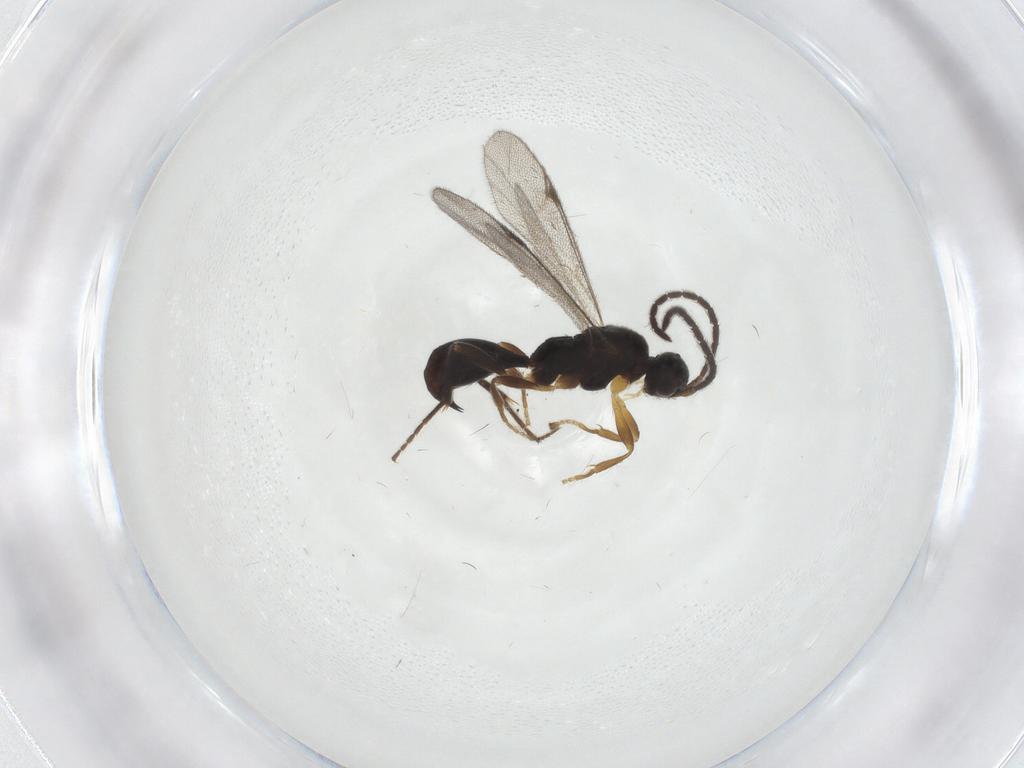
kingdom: Animalia
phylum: Arthropoda
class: Insecta
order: Hymenoptera
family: Proctotrupidae
